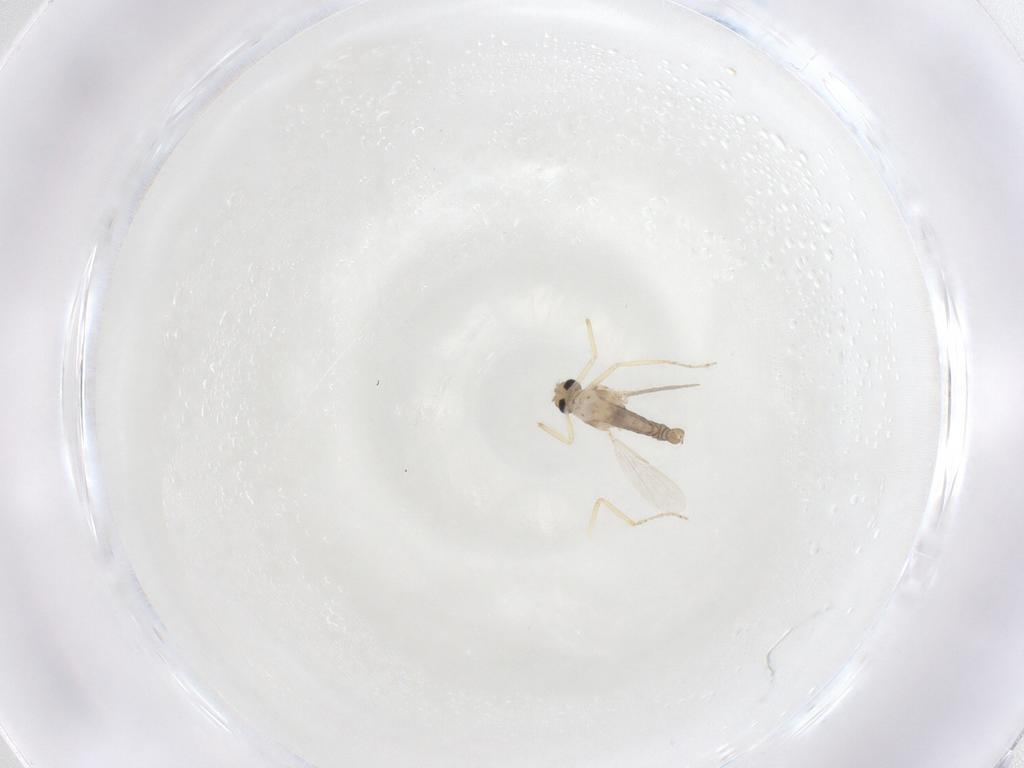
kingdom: Animalia
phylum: Arthropoda
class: Insecta
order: Diptera
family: Ceratopogonidae
